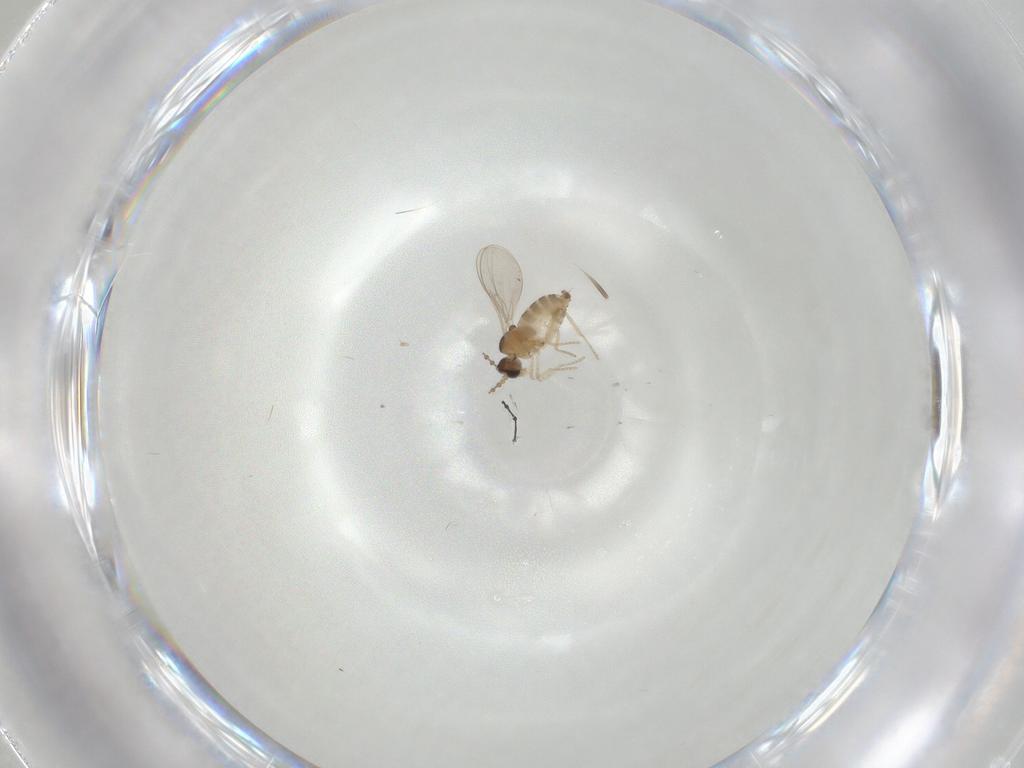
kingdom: Animalia
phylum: Arthropoda
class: Insecta
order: Diptera
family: Cecidomyiidae
